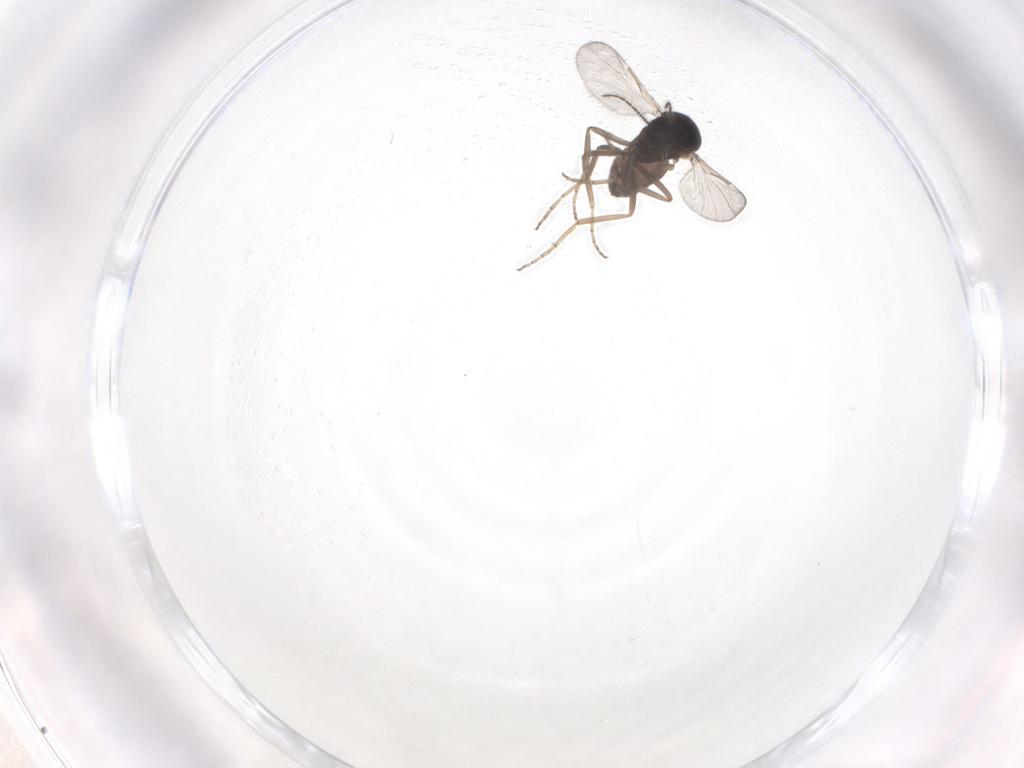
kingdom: Animalia
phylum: Arthropoda
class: Insecta
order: Diptera
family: Ceratopogonidae
